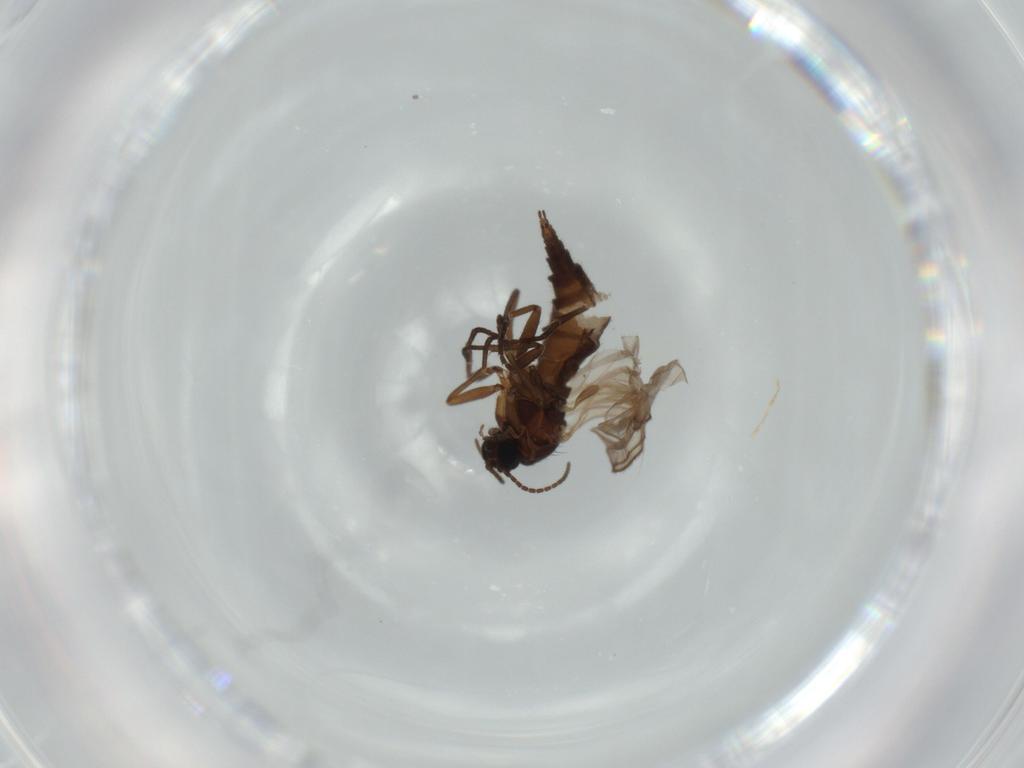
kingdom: Animalia
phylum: Arthropoda
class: Insecta
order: Diptera
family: Sciaridae
